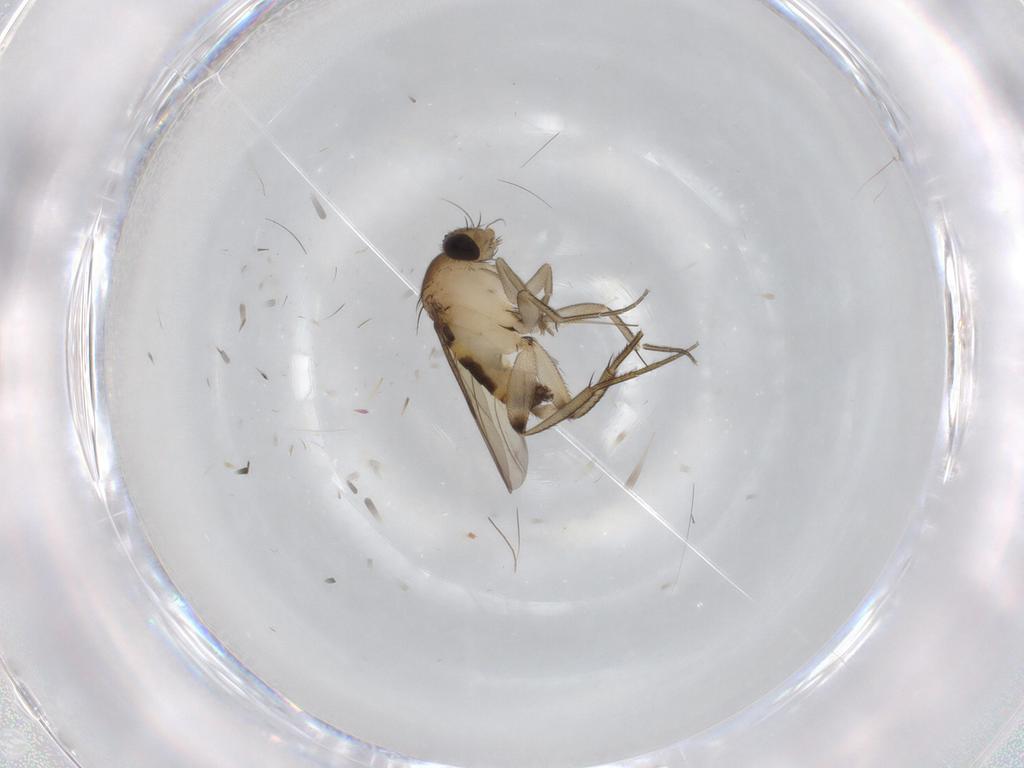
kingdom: Animalia
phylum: Arthropoda
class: Insecta
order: Diptera
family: Phoridae
